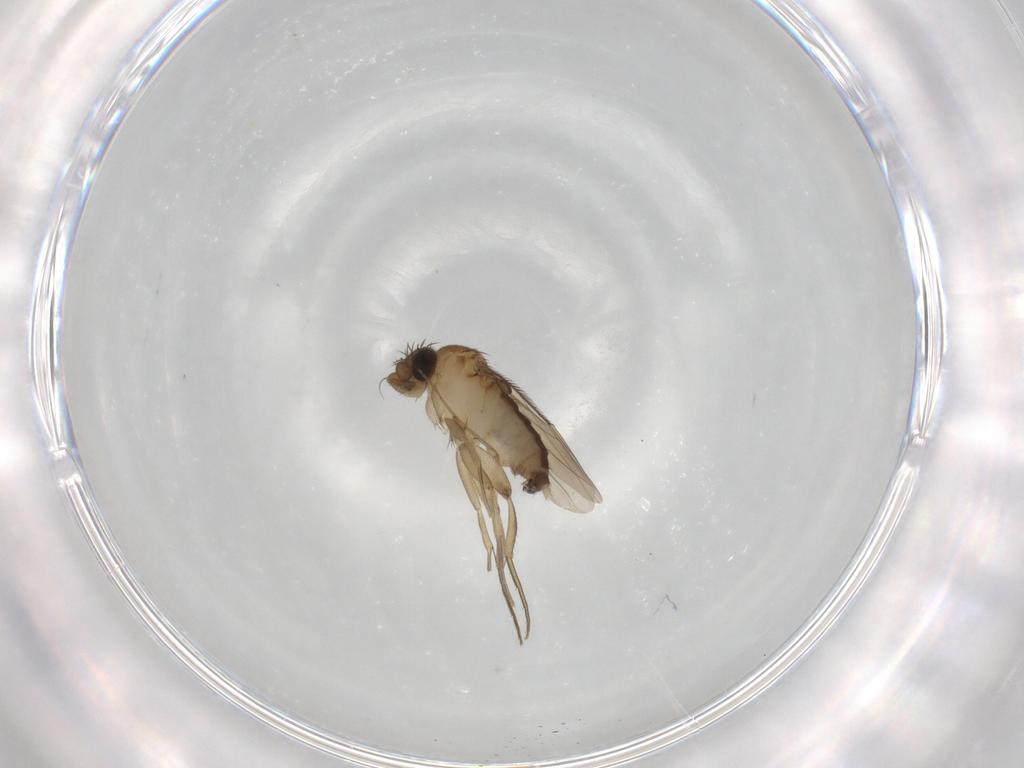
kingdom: Animalia
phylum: Arthropoda
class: Insecta
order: Diptera
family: Phoridae
